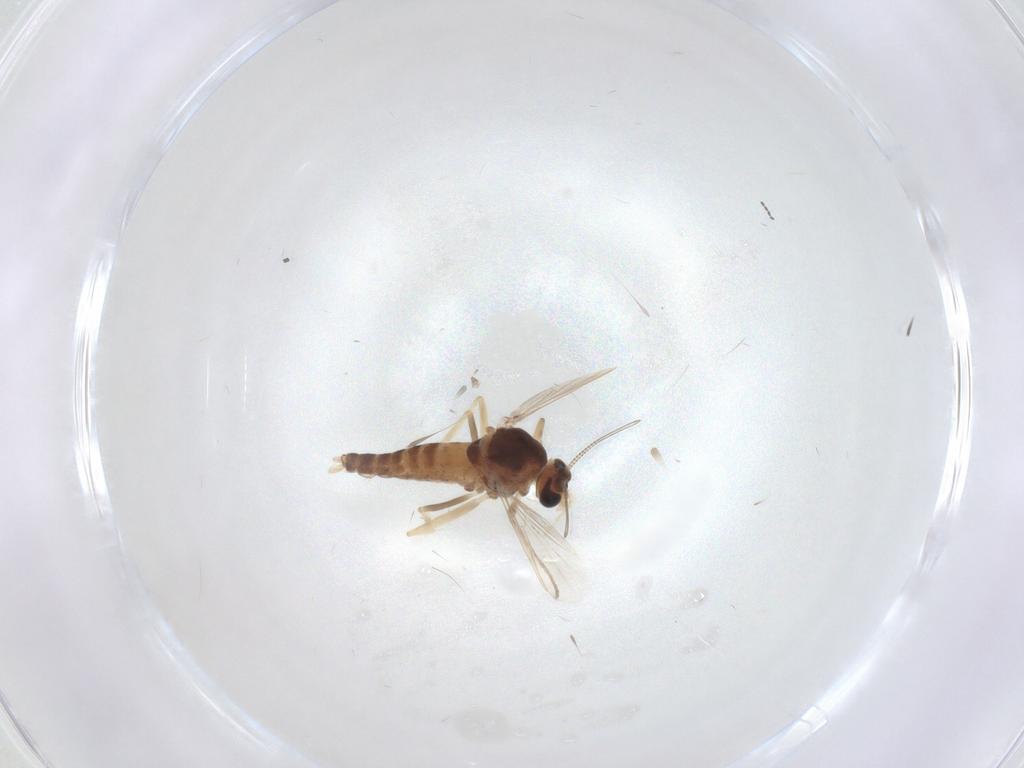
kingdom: Animalia
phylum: Arthropoda
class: Insecta
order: Diptera
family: Chironomidae
